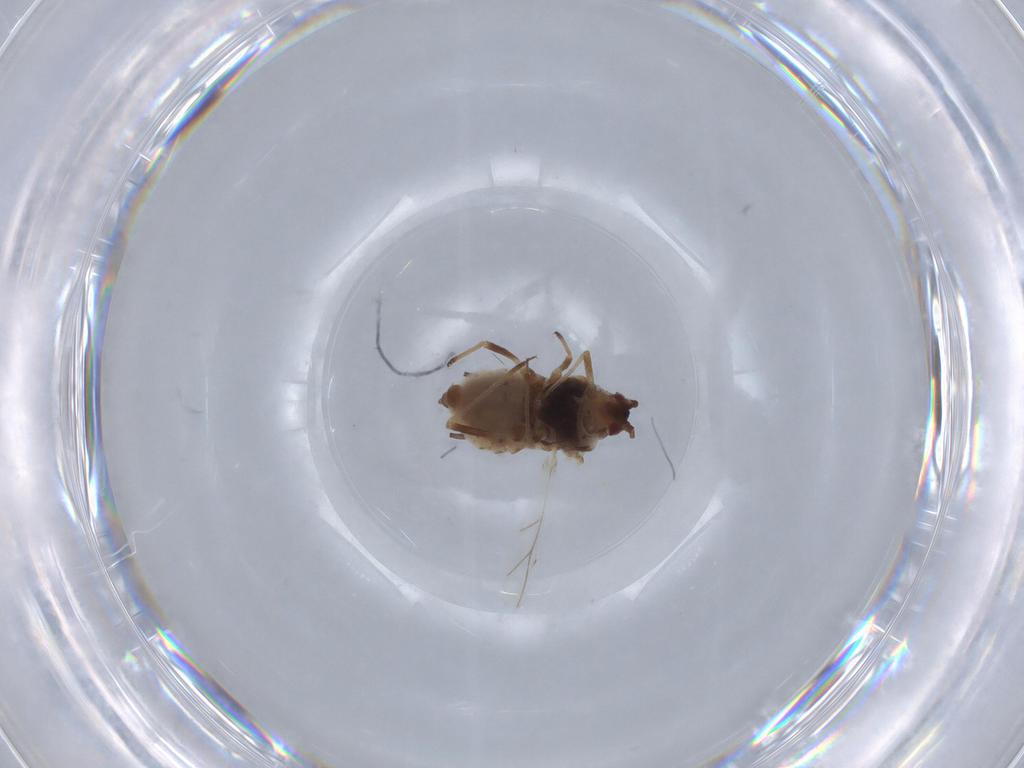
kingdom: Animalia
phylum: Arthropoda
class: Insecta
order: Hemiptera
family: Aphididae
